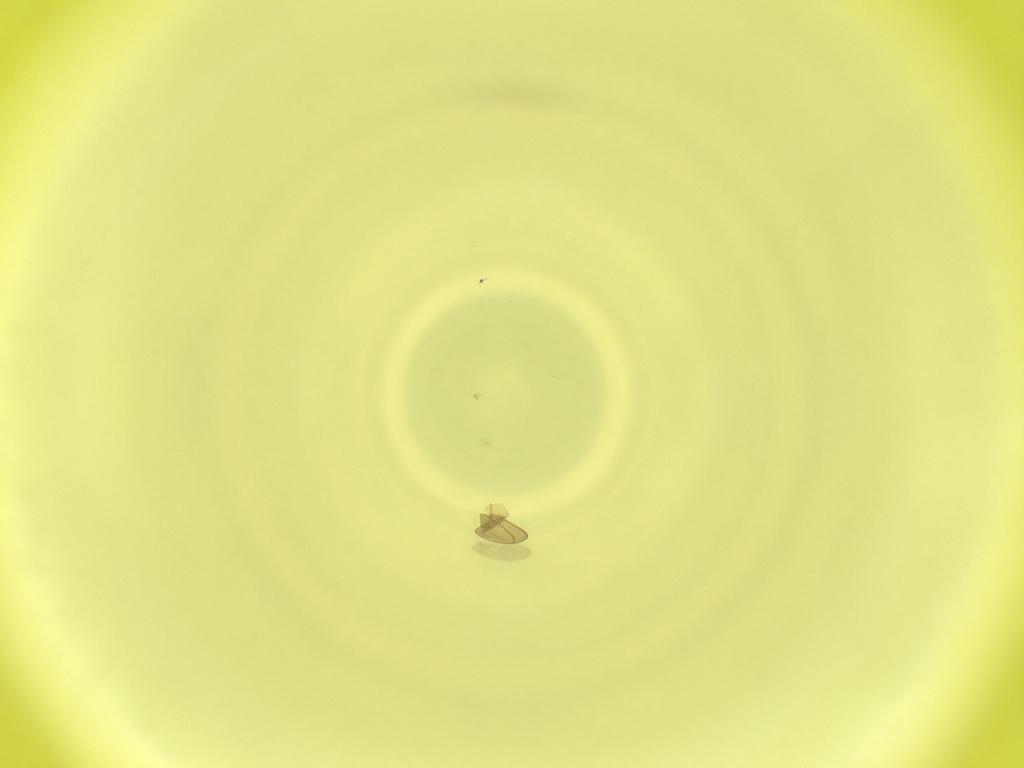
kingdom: Animalia
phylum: Arthropoda
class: Insecta
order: Diptera
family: Cecidomyiidae
